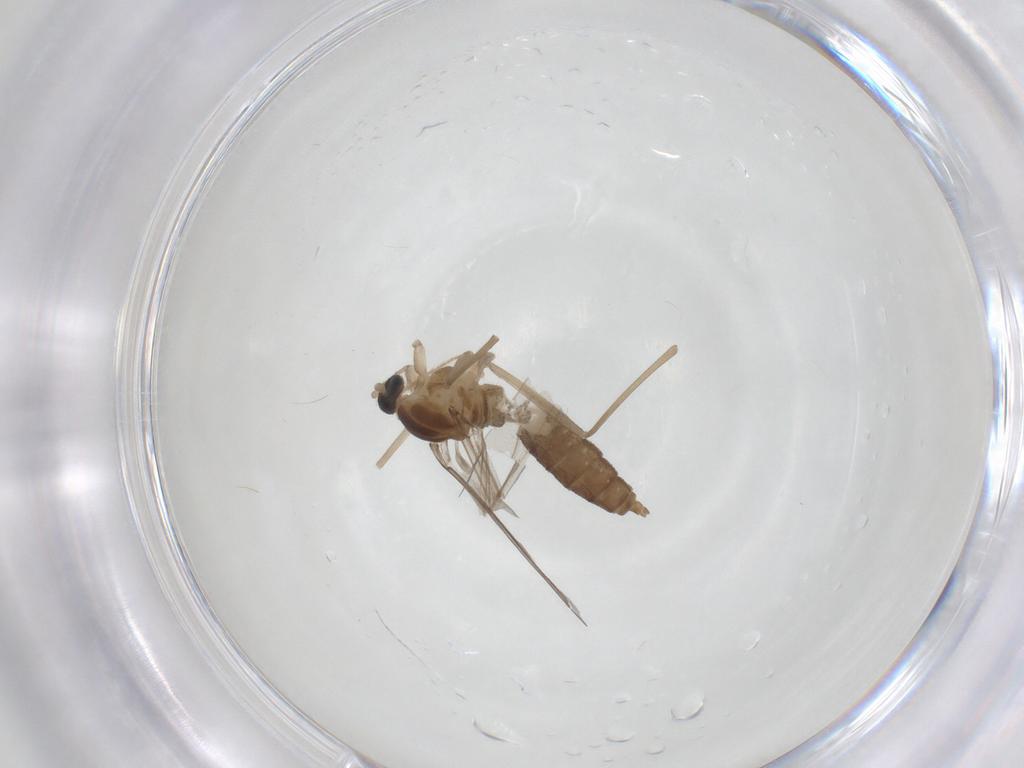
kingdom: Animalia
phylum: Arthropoda
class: Insecta
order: Diptera
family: Cecidomyiidae
